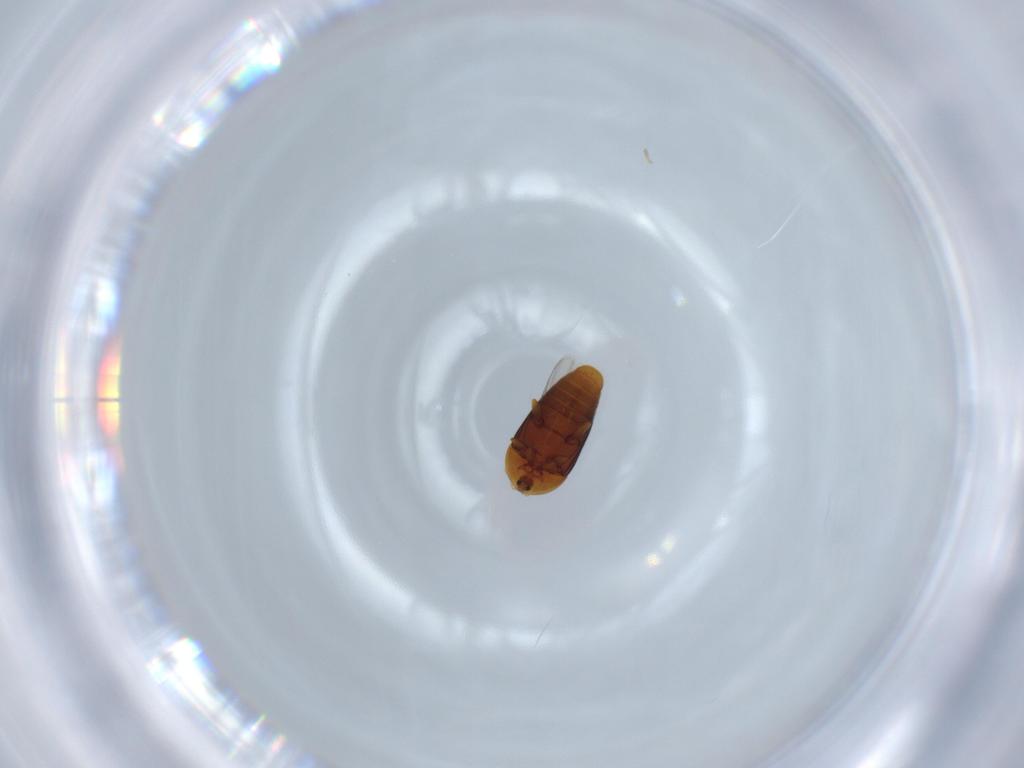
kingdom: Animalia
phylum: Arthropoda
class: Insecta
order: Coleoptera
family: Corylophidae
